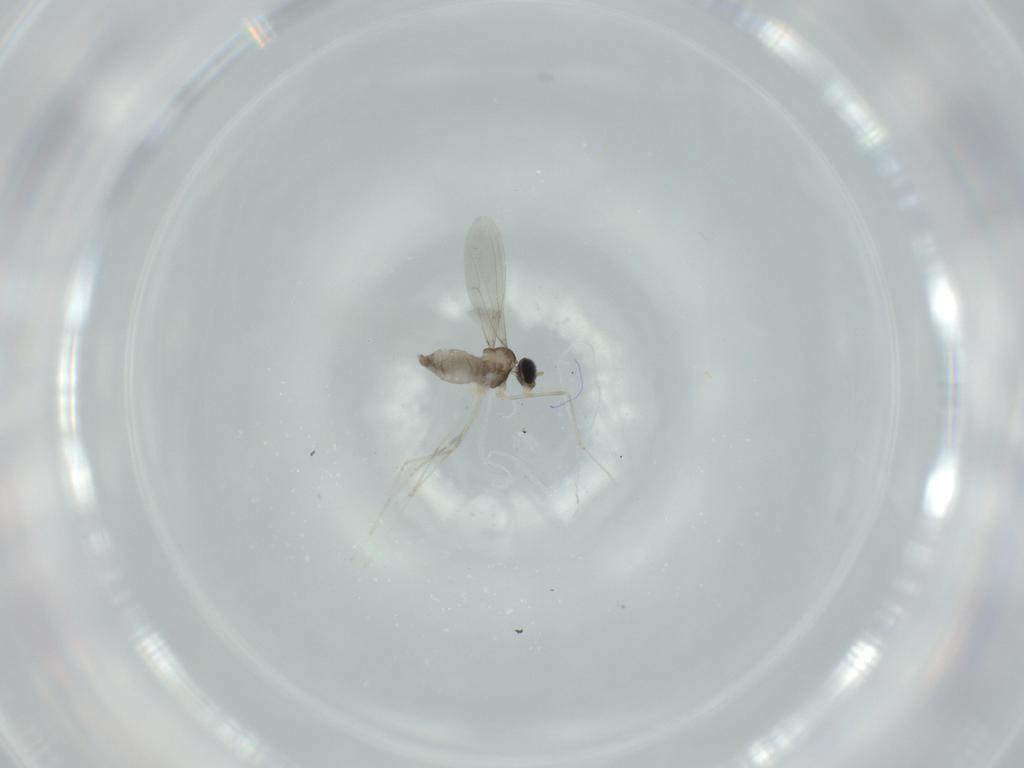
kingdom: Animalia
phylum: Arthropoda
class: Insecta
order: Diptera
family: Cecidomyiidae
